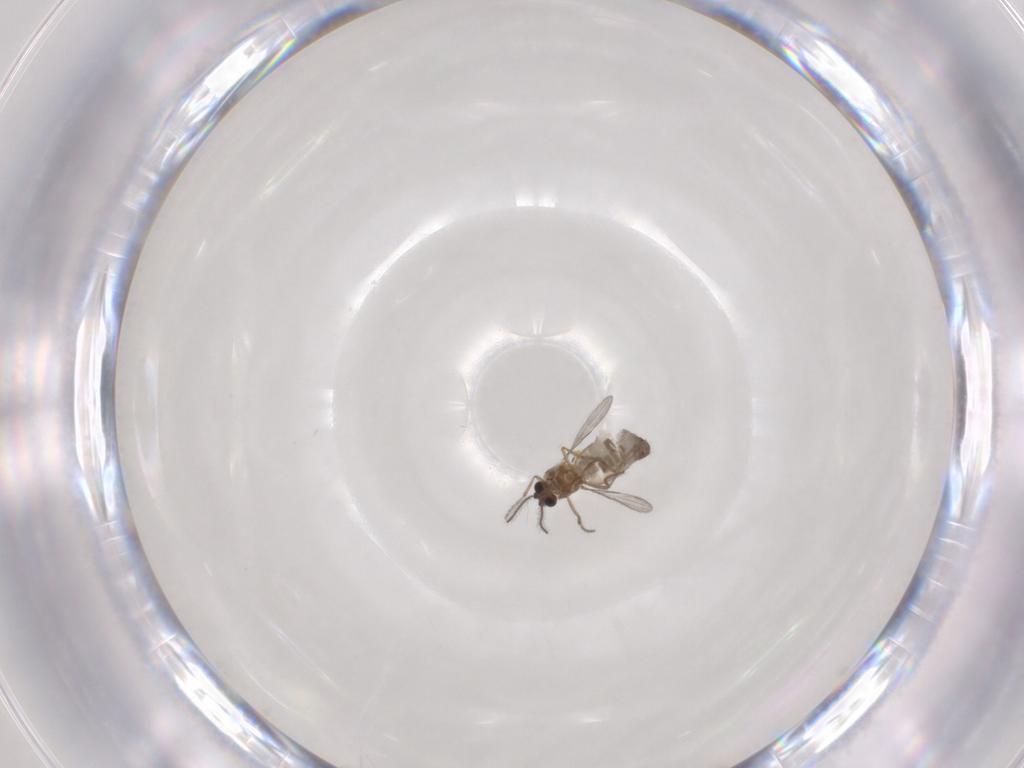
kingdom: Animalia
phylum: Arthropoda
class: Insecta
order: Diptera
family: Ceratopogonidae
